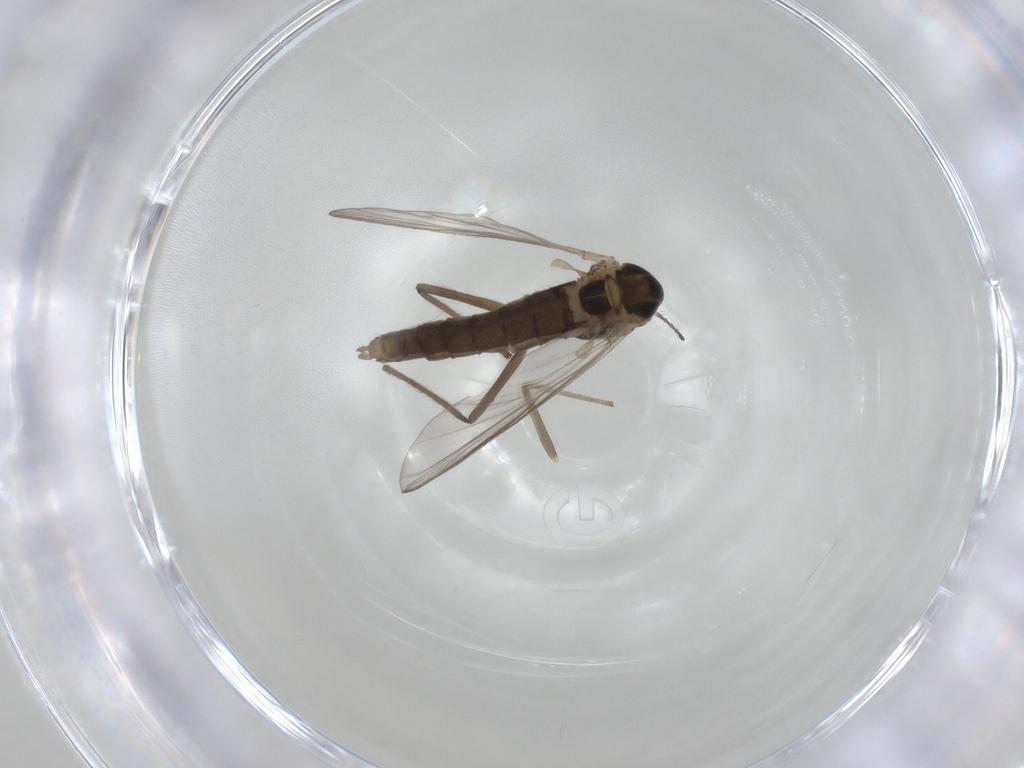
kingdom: Animalia
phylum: Arthropoda
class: Insecta
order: Diptera
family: Chironomidae
